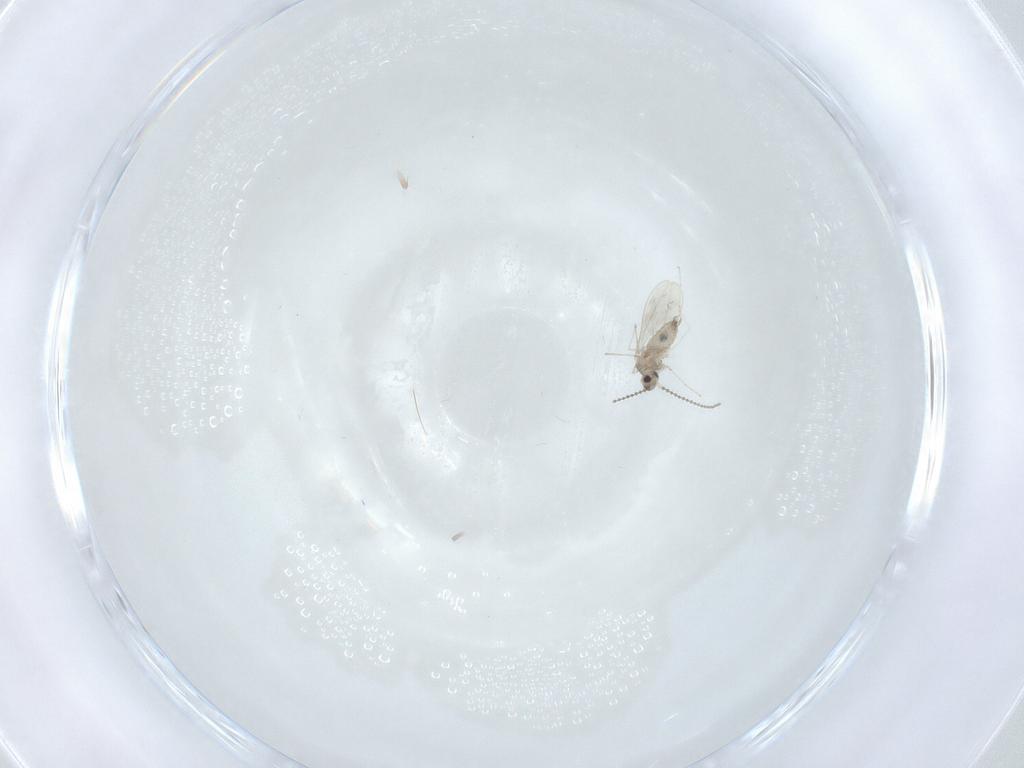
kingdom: Animalia
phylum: Arthropoda
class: Insecta
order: Diptera
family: Cecidomyiidae
